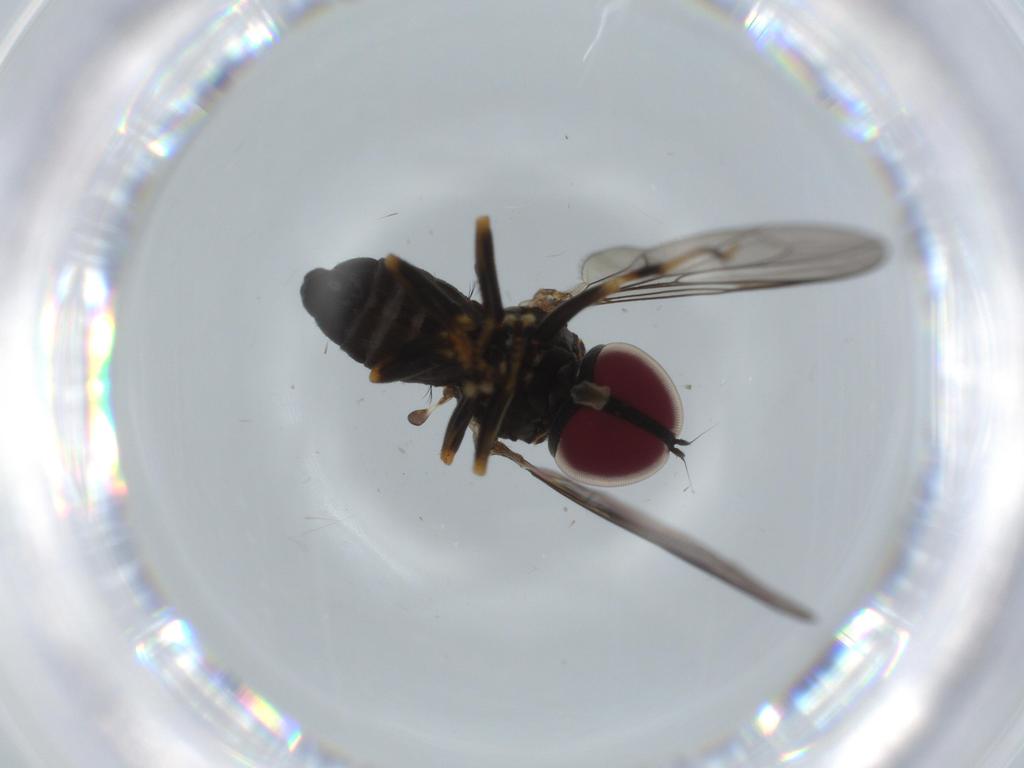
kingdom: Animalia
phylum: Arthropoda
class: Insecta
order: Diptera
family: Pipunculidae
